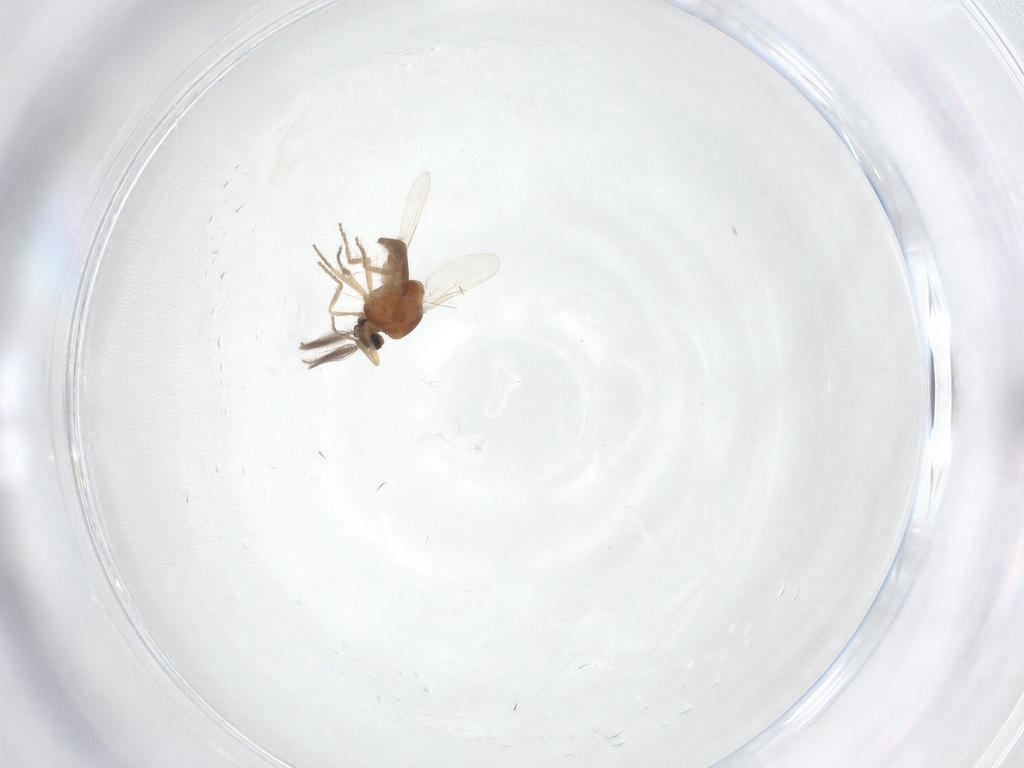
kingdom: Animalia
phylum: Arthropoda
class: Insecta
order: Diptera
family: Ceratopogonidae
